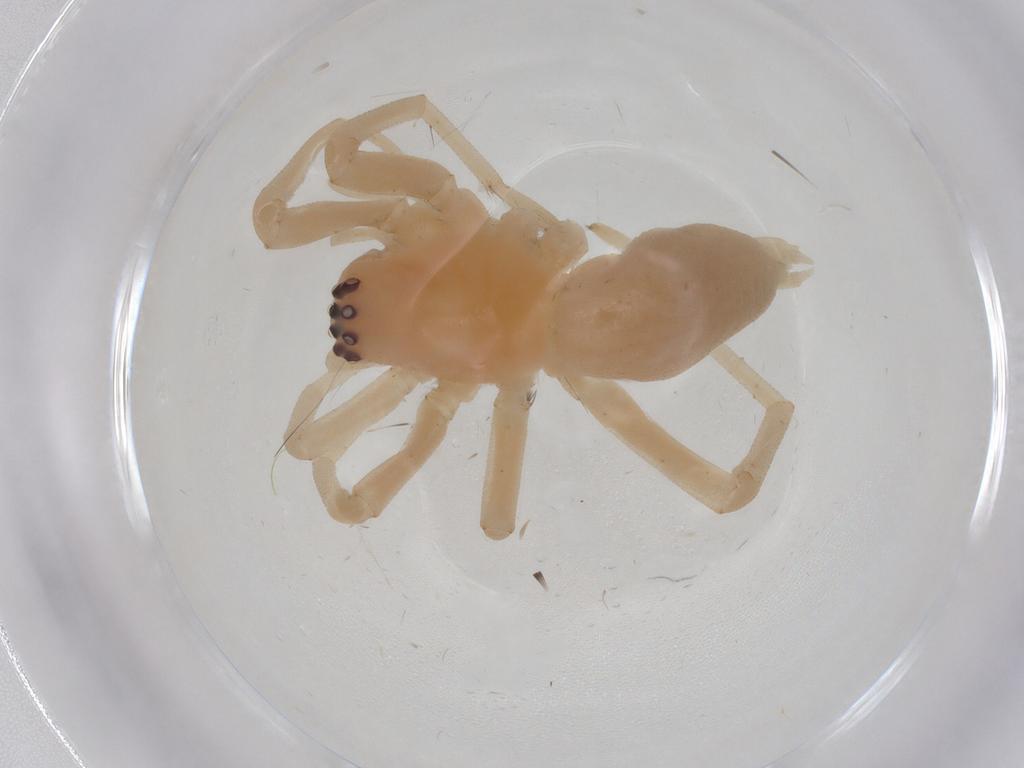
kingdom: Animalia
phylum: Arthropoda
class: Arachnida
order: Araneae
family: Cheiracanthiidae
